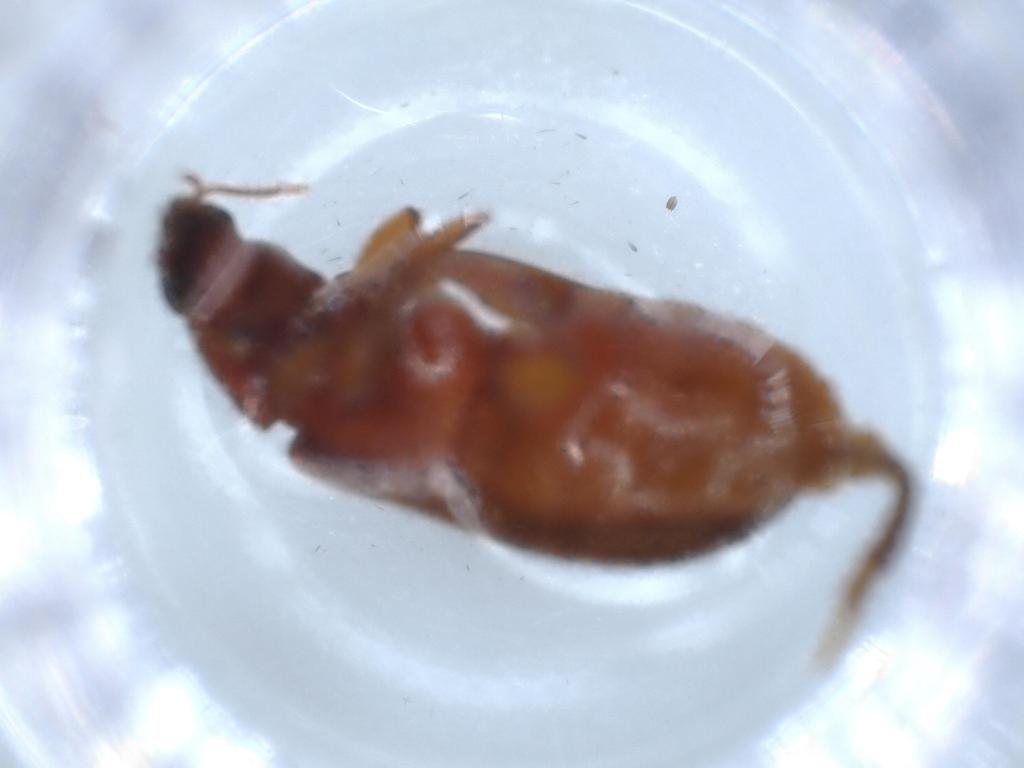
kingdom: Animalia
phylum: Arthropoda
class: Insecta
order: Coleoptera
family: Mycteridae
